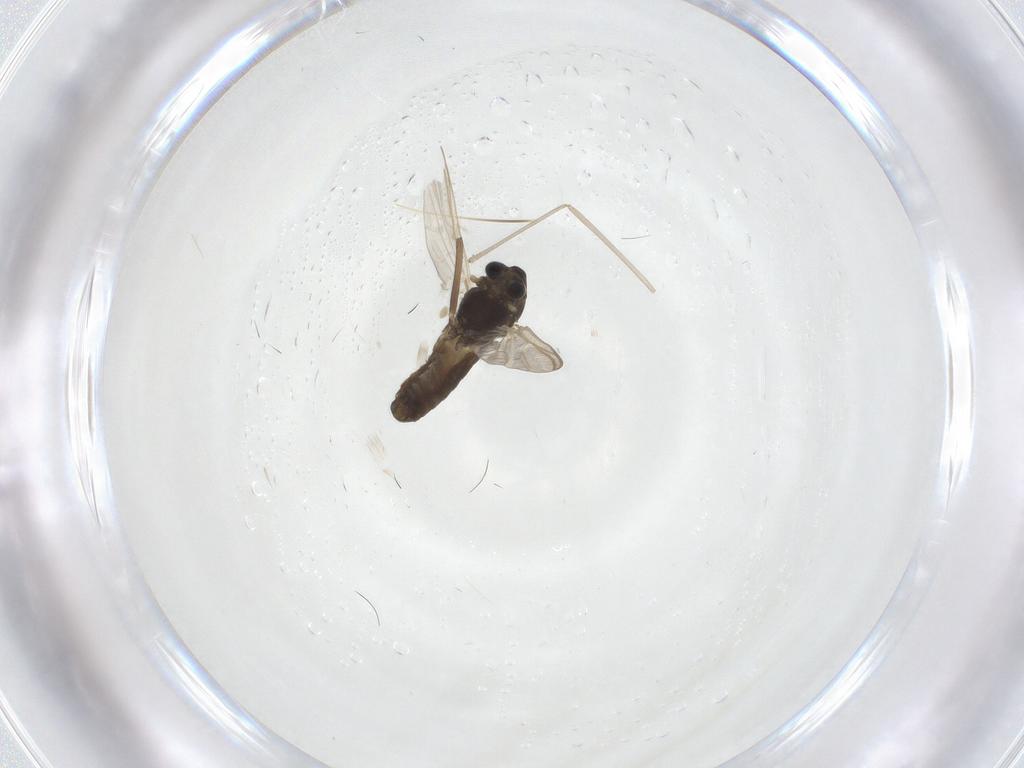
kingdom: Animalia
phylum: Arthropoda
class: Insecta
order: Diptera
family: Chironomidae
